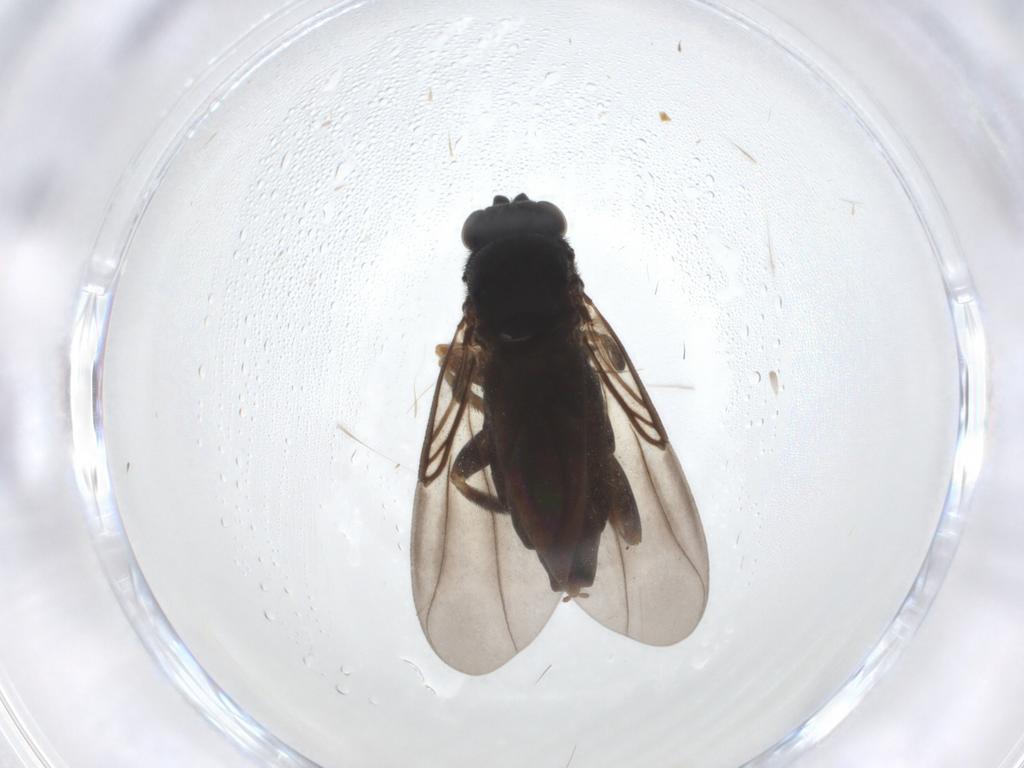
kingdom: Animalia
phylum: Arthropoda
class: Insecta
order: Diptera
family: Phoridae
